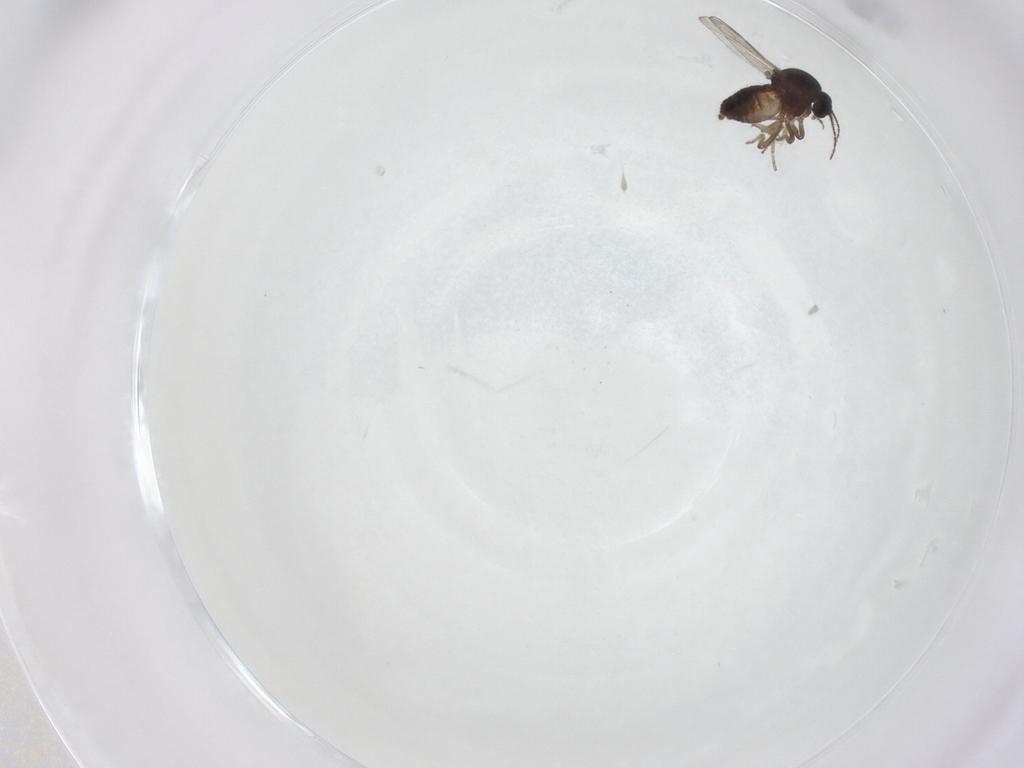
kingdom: Animalia
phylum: Arthropoda
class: Insecta
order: Diptera
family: Ceratopogonidae
